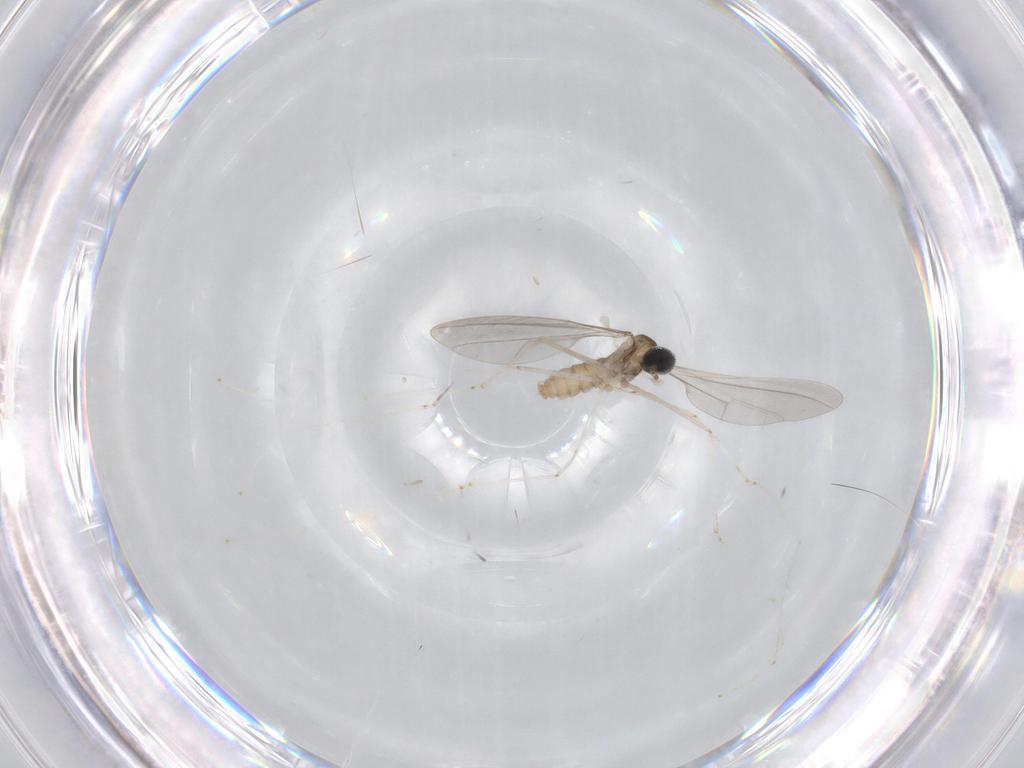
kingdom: Animalia
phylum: Arthropoda
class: Insecta
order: Diptera
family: Cecidomyiidae
